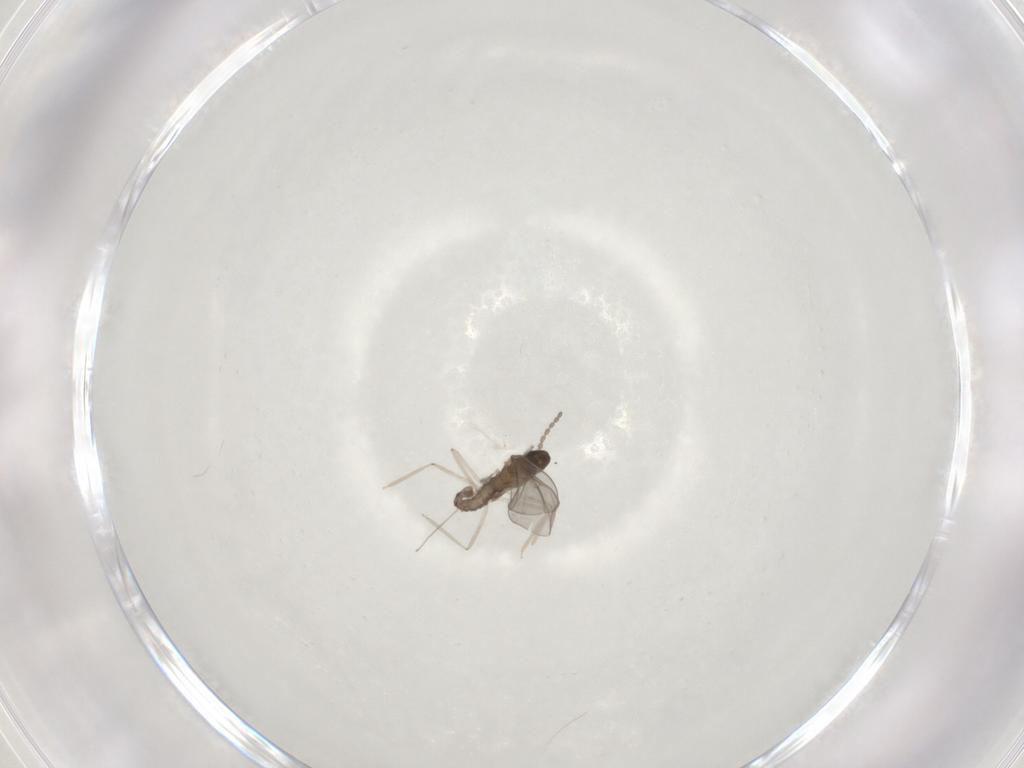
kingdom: Animalia
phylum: Arthropoda
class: Insecta
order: Diptera
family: Cecidomyiidae
